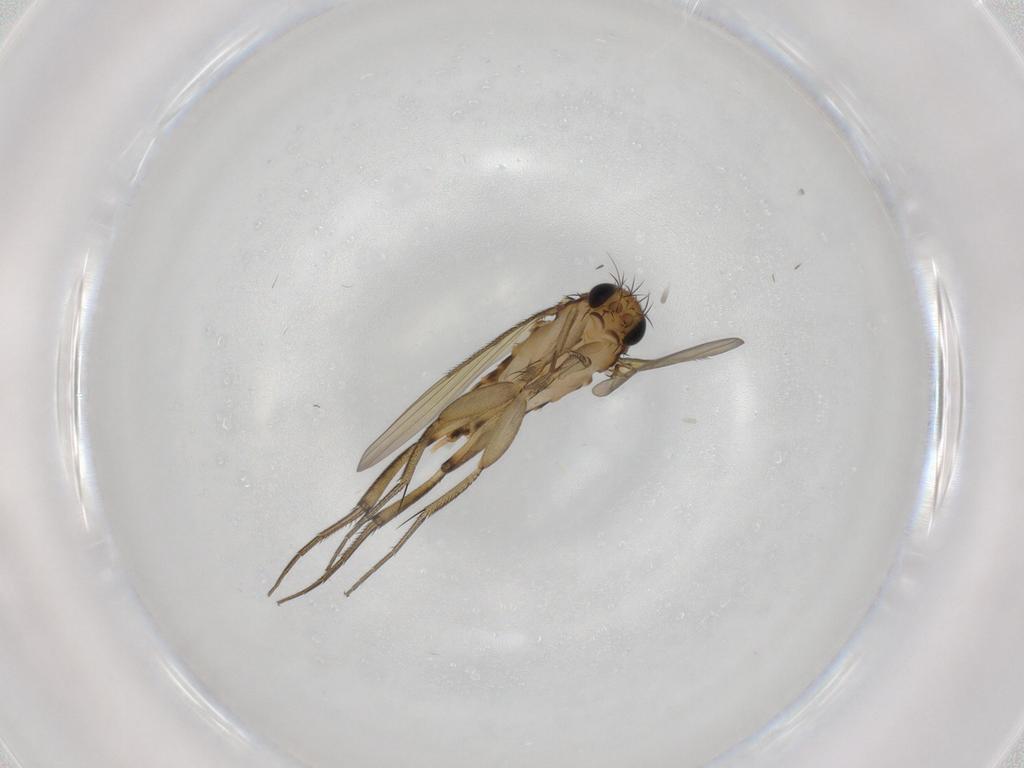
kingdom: Animalia
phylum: Arthropoda
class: Insecta
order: Diptera
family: Phoridae
